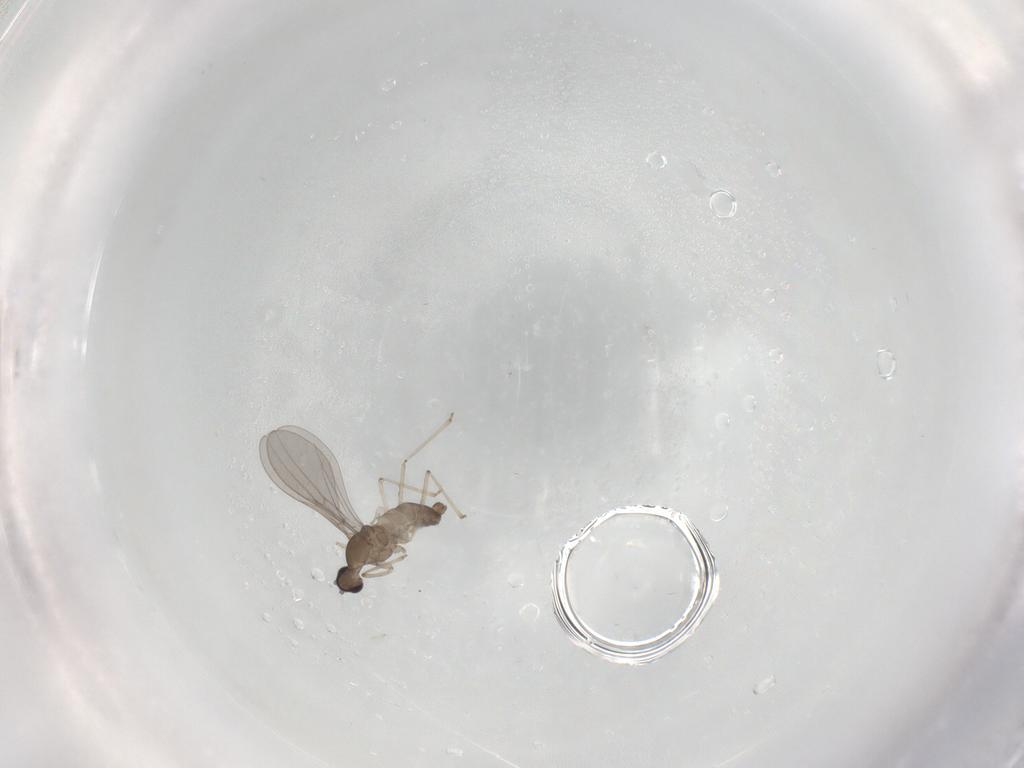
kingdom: Animalia
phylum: Arthropoda
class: Insecta
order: Diptera
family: Cecidomyiidae
